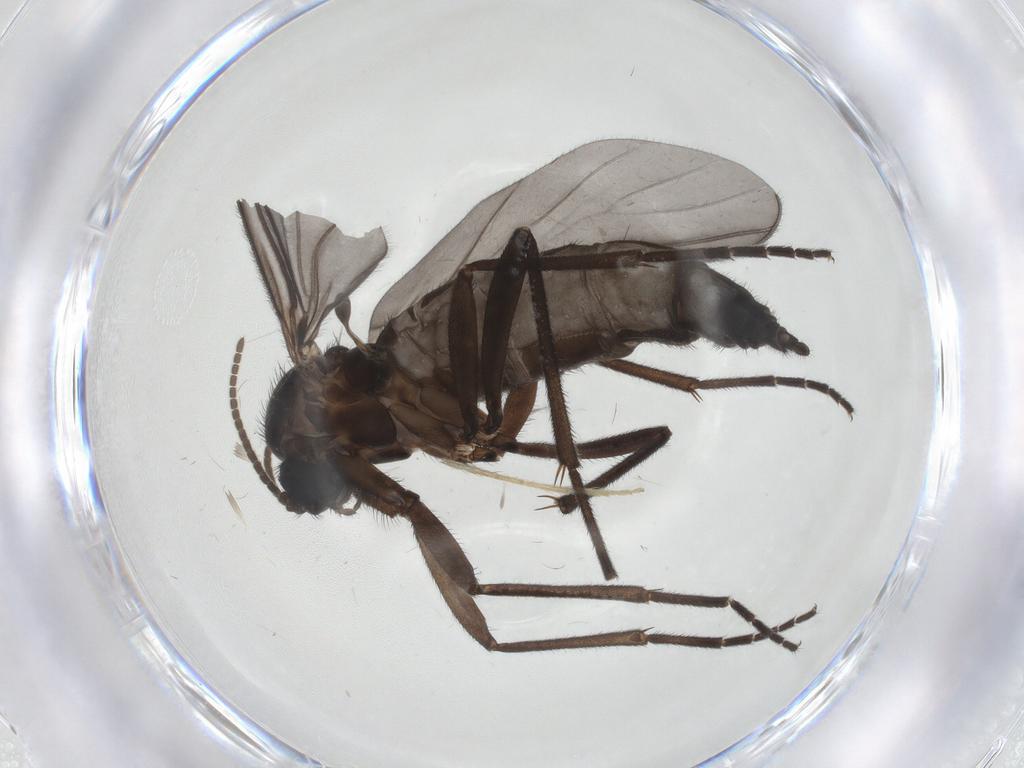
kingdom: Animalia
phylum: Arthropoda
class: Insecta
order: Diptera
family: Sciaridae
